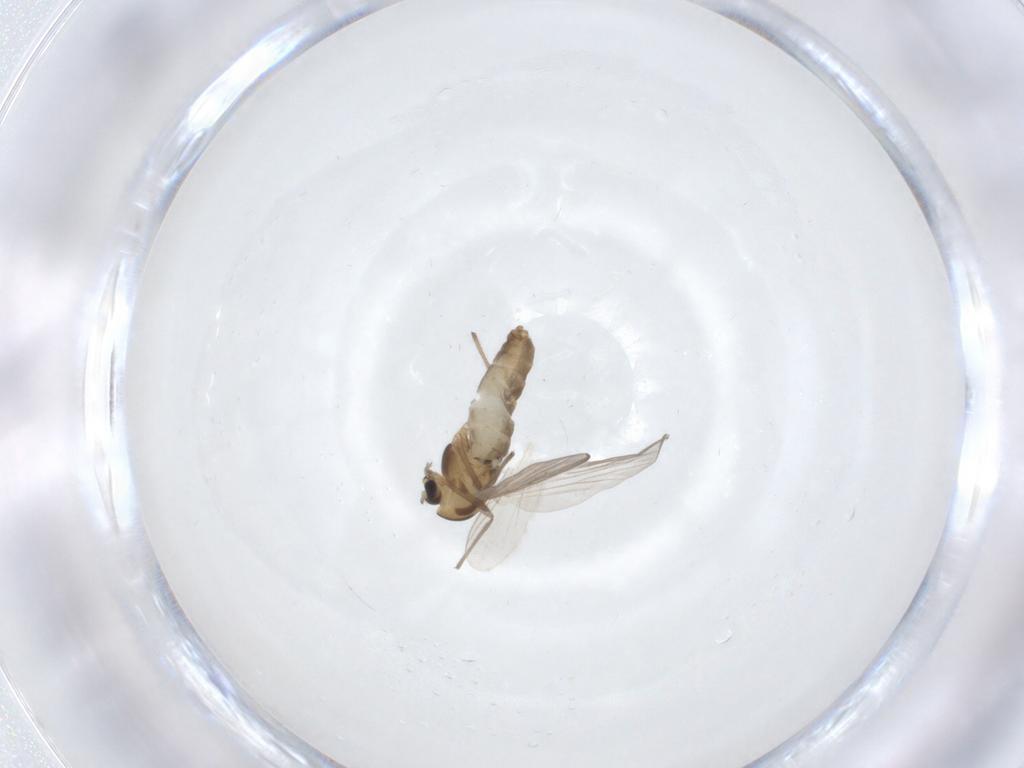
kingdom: Animalia
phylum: Arthropoda
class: Insecta
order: Diptera
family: Chironomidae
